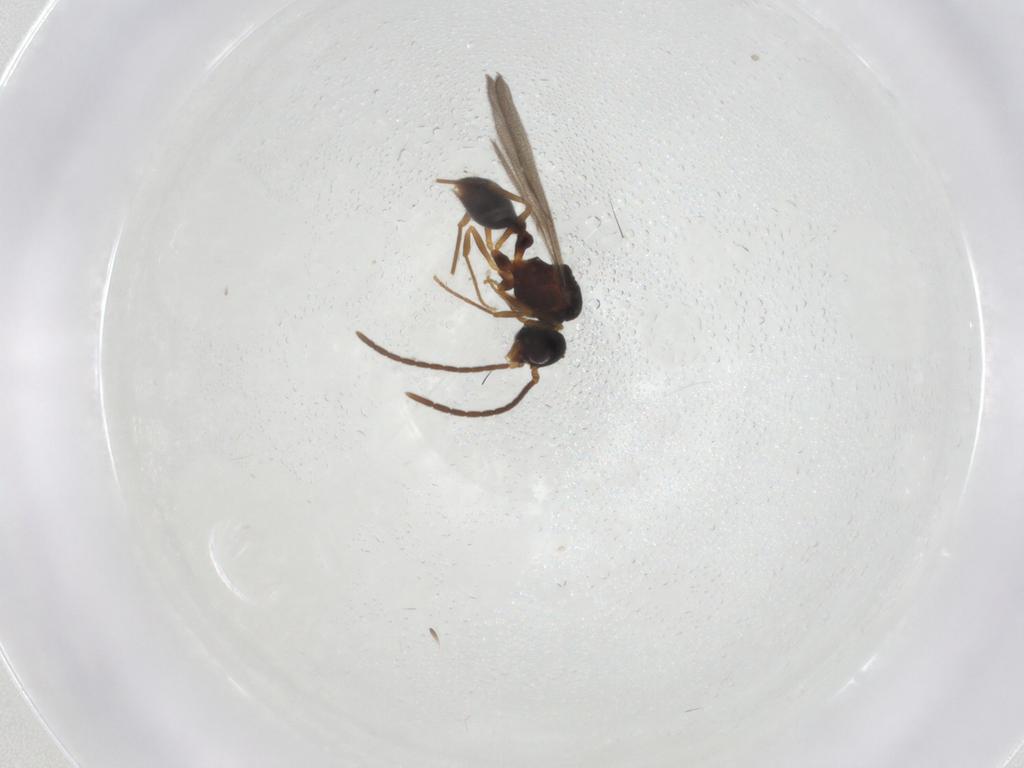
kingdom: Animalia
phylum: Arthropoda
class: Insecta
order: Hymenoptera
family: Formicidae
